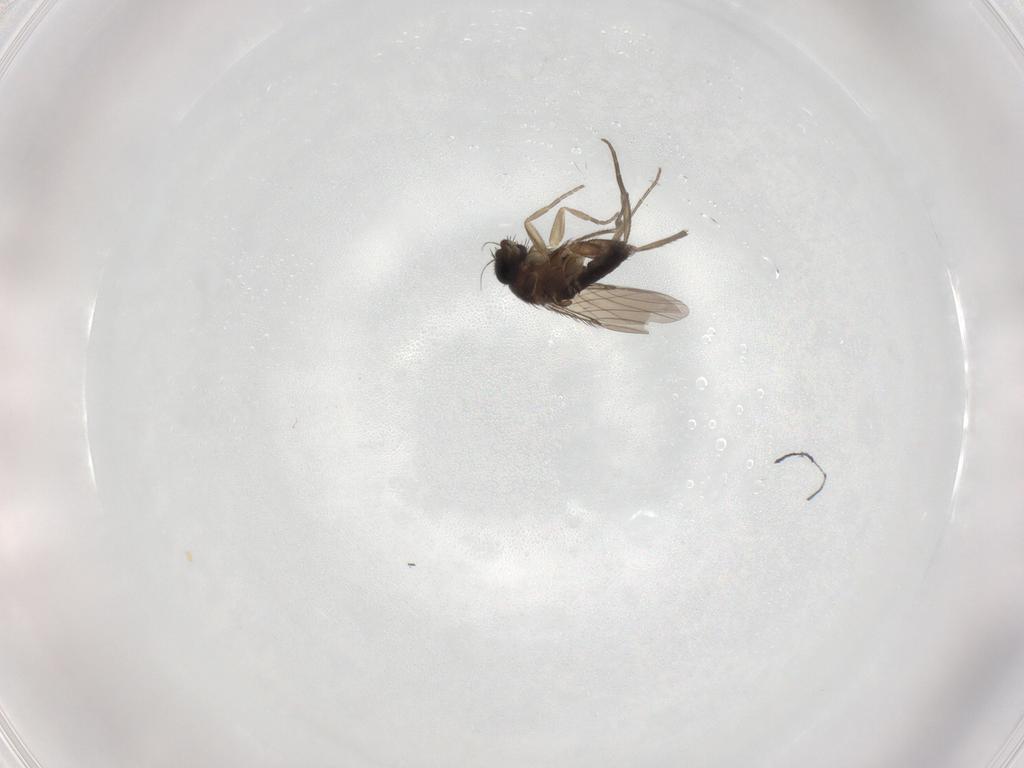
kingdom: Animalia
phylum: Arthropoda
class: Insecta
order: Diptera
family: Phoridae
